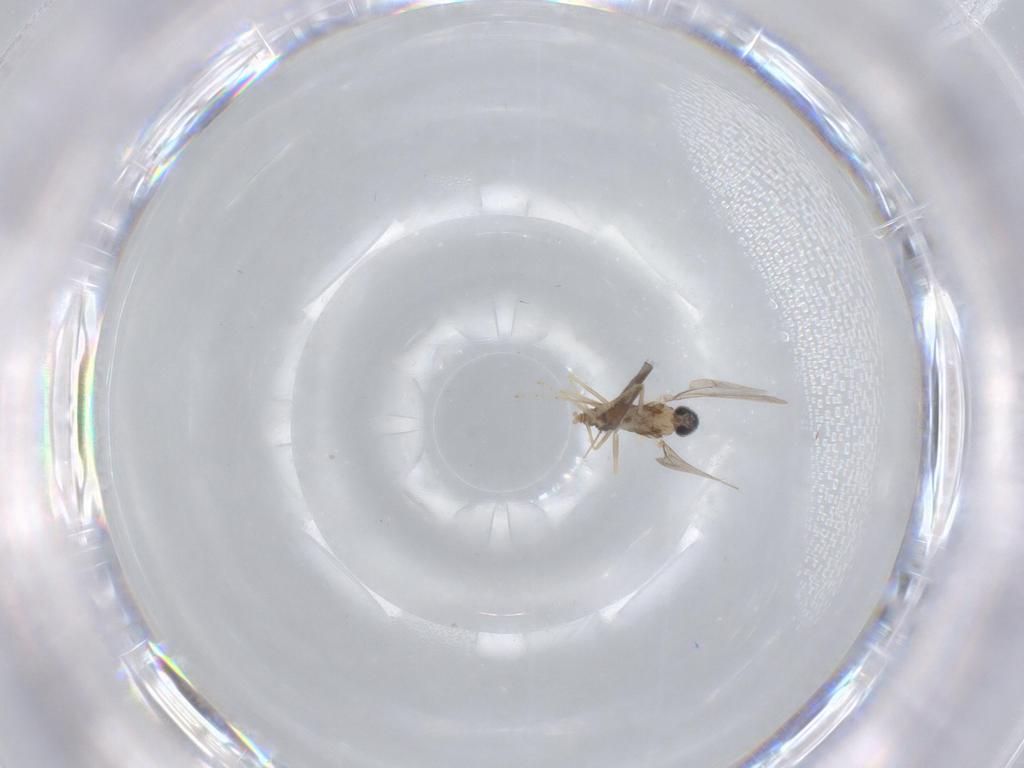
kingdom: Animalia
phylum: Arthropoda
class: Insecta
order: Diptera
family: Cecidomyiidae
